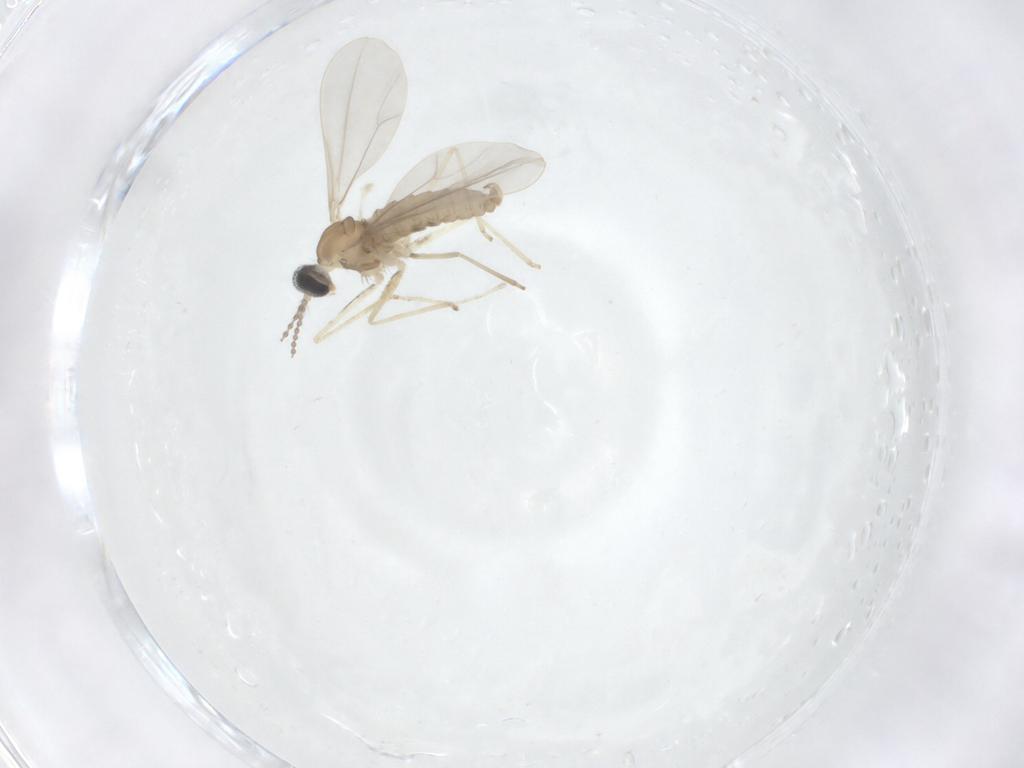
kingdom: Animalia
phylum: Arthropoda
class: Insecta
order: Diptera
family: Cecidomyiidae
